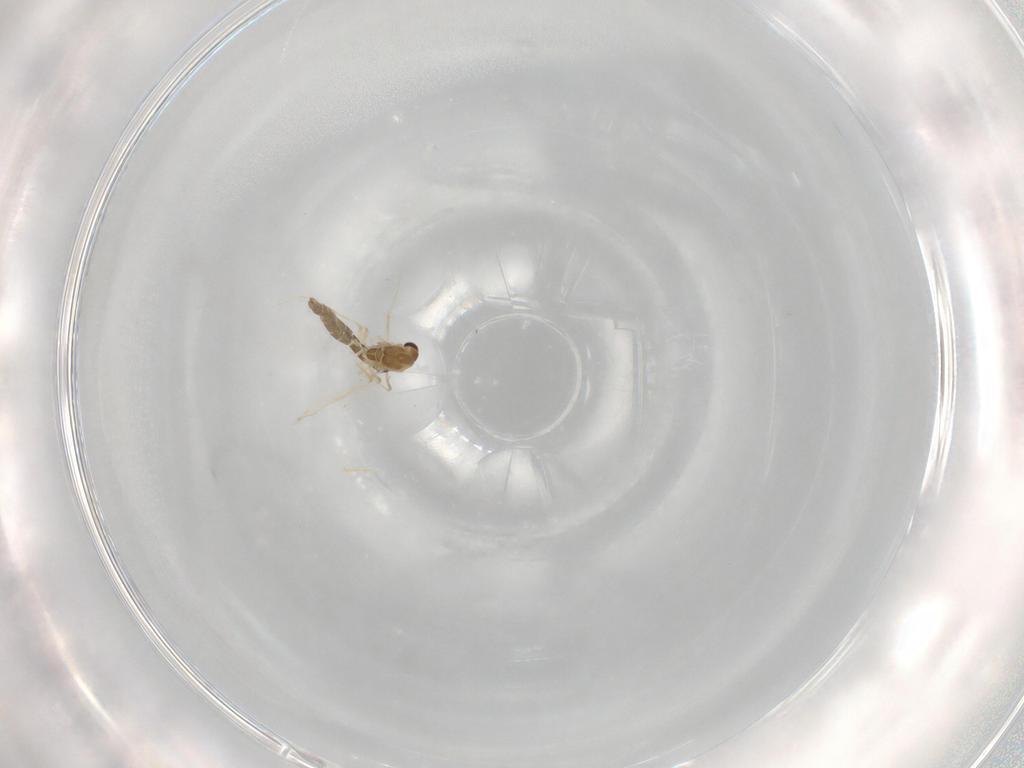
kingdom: Animalia
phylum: Arthropoda
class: Insecta
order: Diptera
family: Chironomidae
